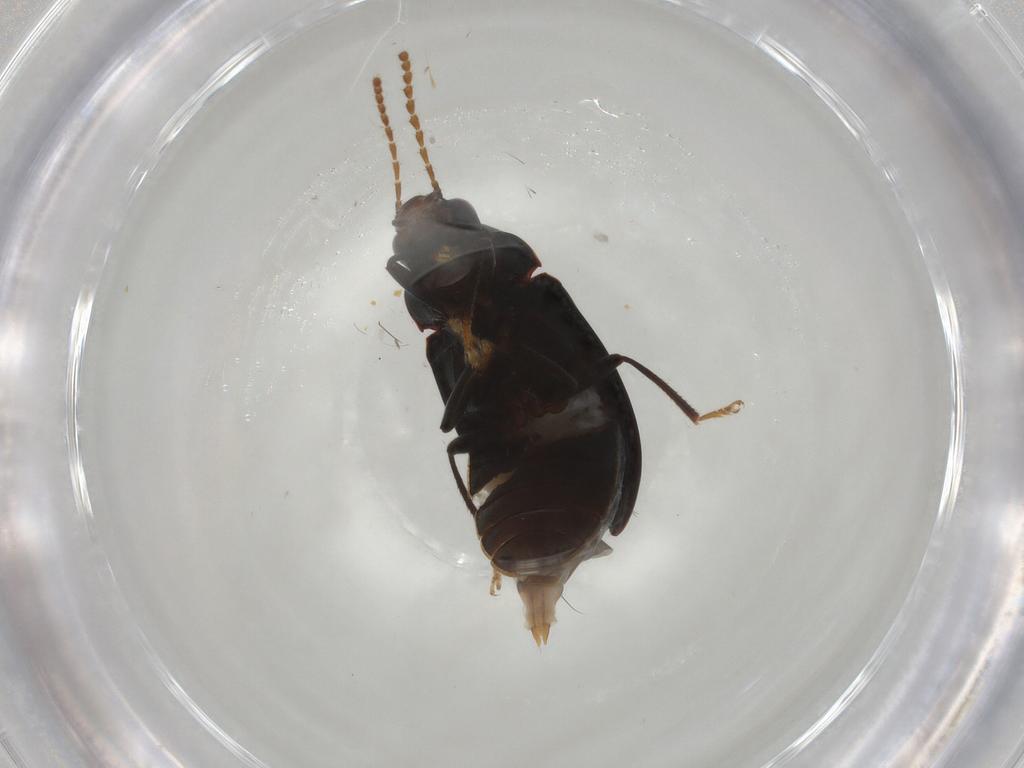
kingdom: Animalia
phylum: Arthropoda
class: Insecta
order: Coleoptera
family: Ptilodactylidae
